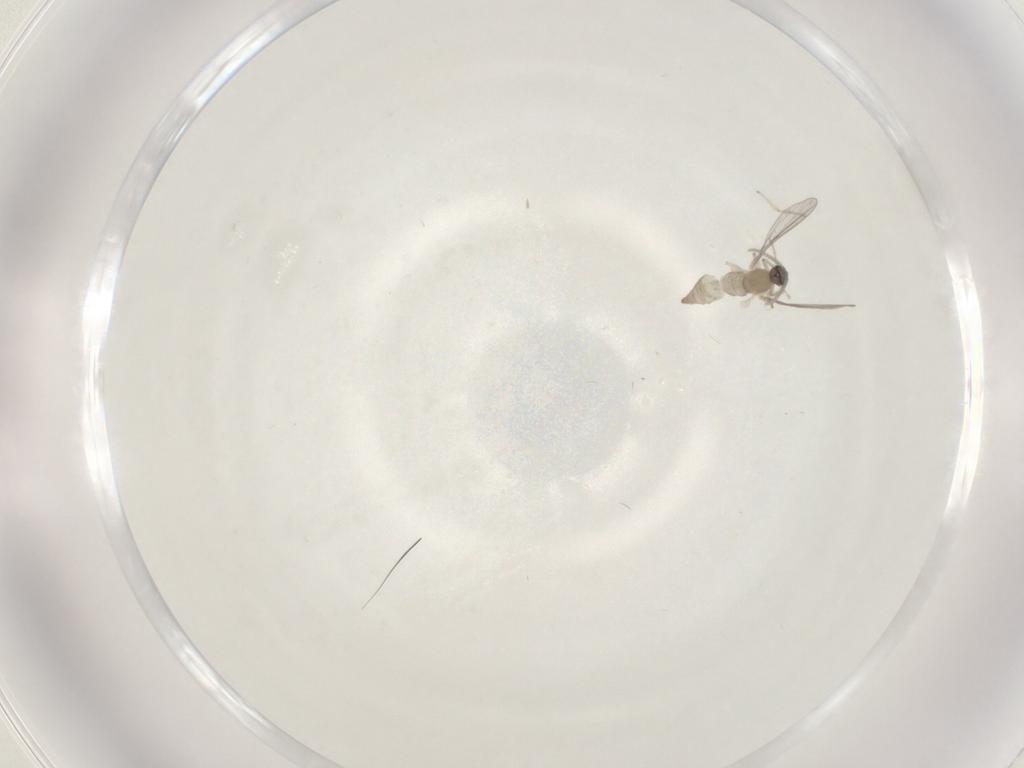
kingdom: Animalia
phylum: Arthropoda
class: Insecta
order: Diptera
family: Cecidomyiidae
